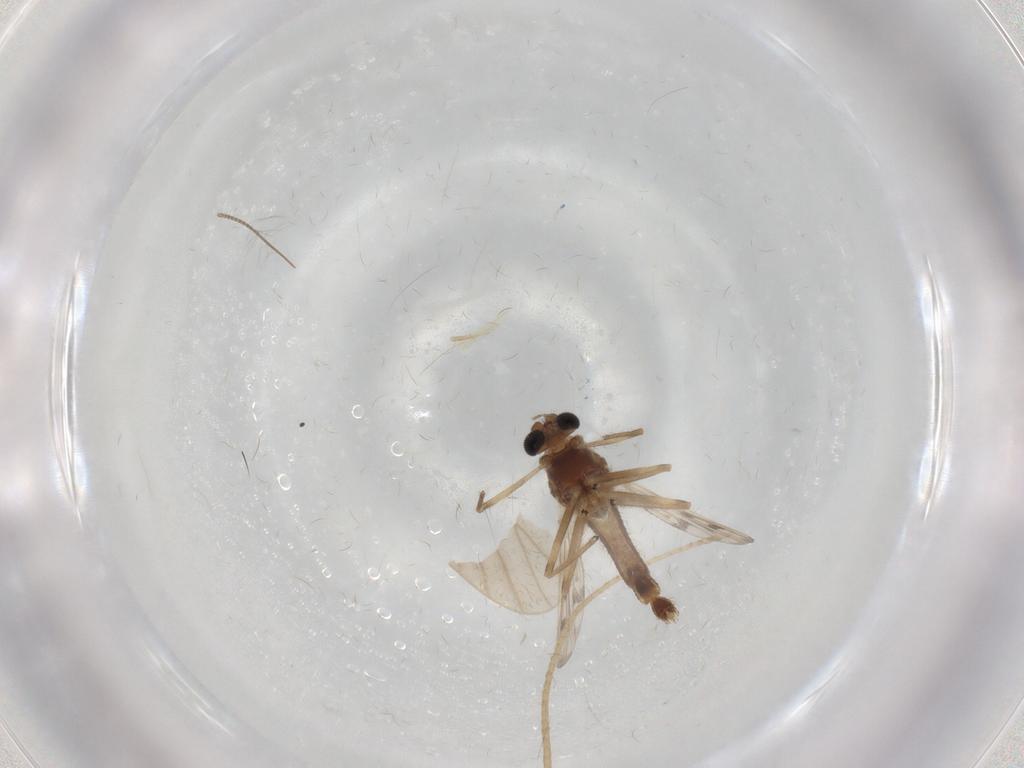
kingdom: Animalia
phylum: Arthropoda
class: Insecta
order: Diptera
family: Chironomidae
